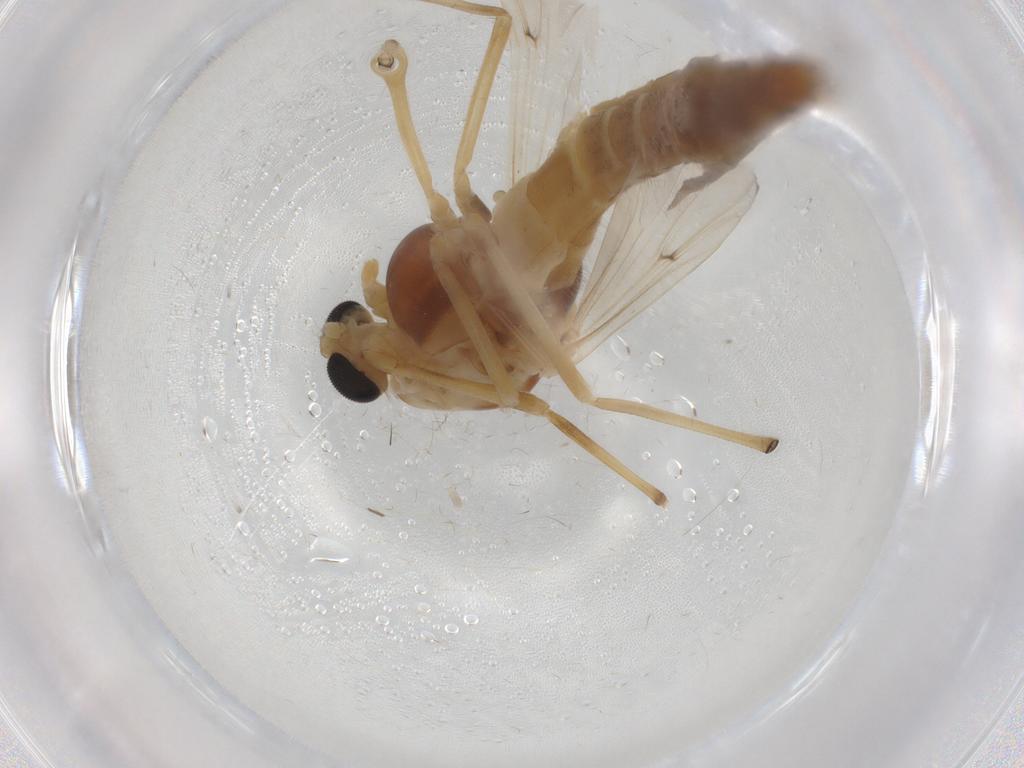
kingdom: Animalia
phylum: Arthropoda
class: Insecta
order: Diptera
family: Chironomidae
